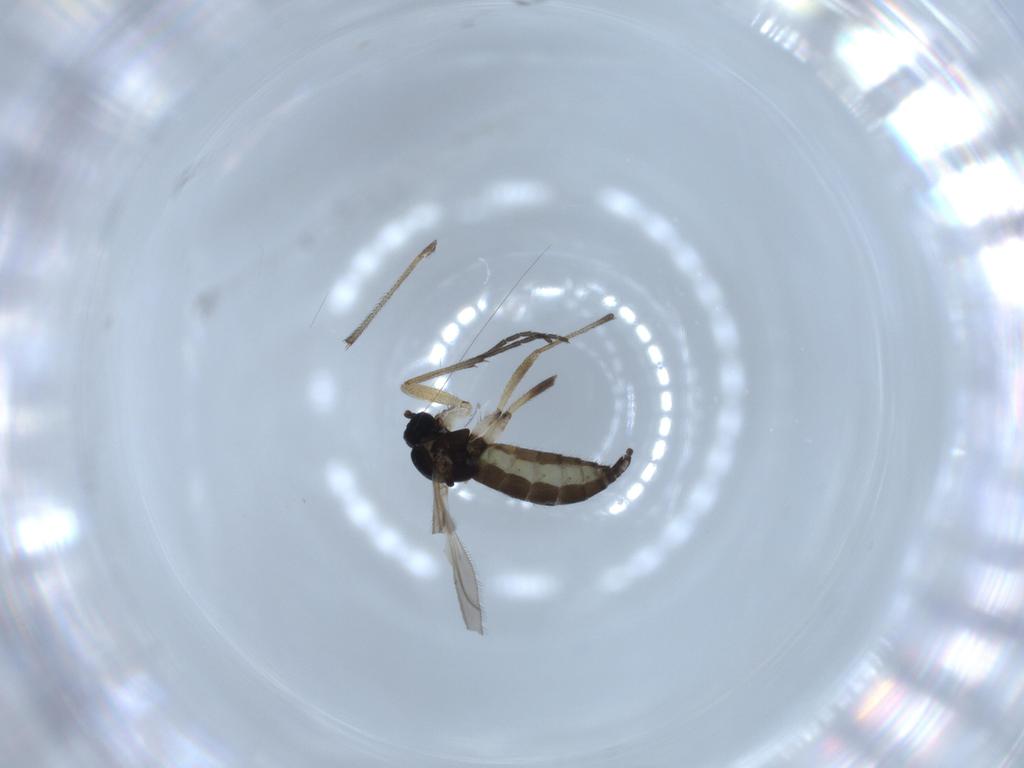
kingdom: Animalia
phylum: Arthropoda
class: Insecta
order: Diptera
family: Sciaridae
